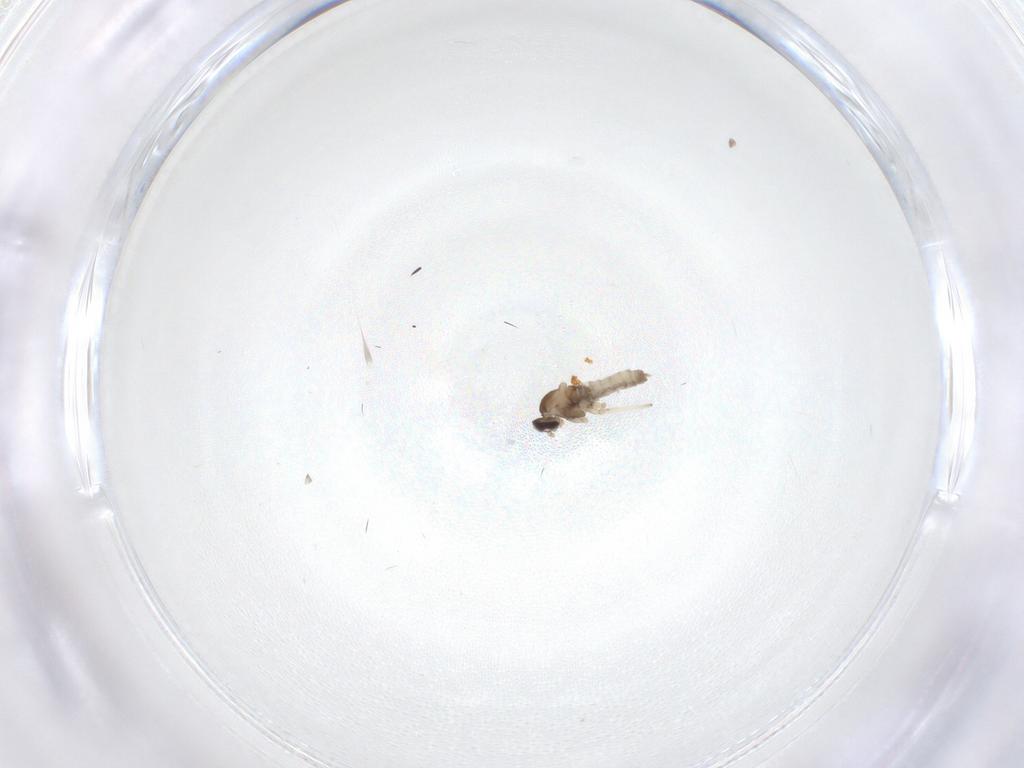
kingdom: Animalia
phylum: Arthropoda
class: Insecta
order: Diptera
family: Cecidomyiidae
